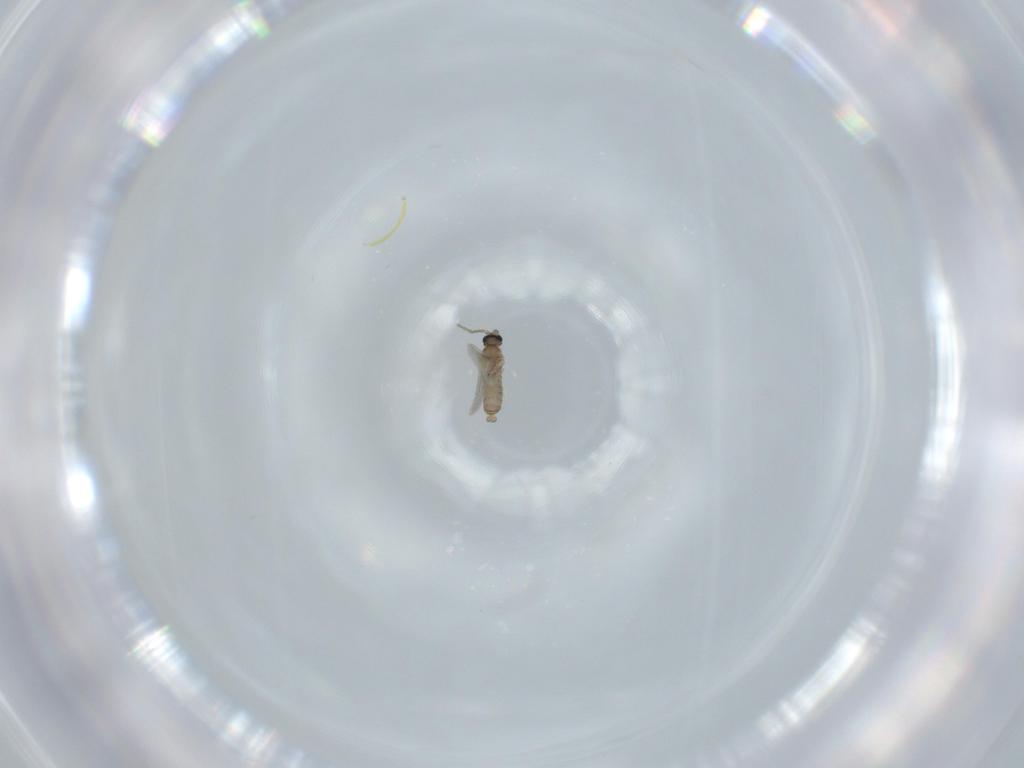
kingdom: Animalia
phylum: Arthropoda
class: Insecta
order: Diptera
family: Cecidomyiidae
